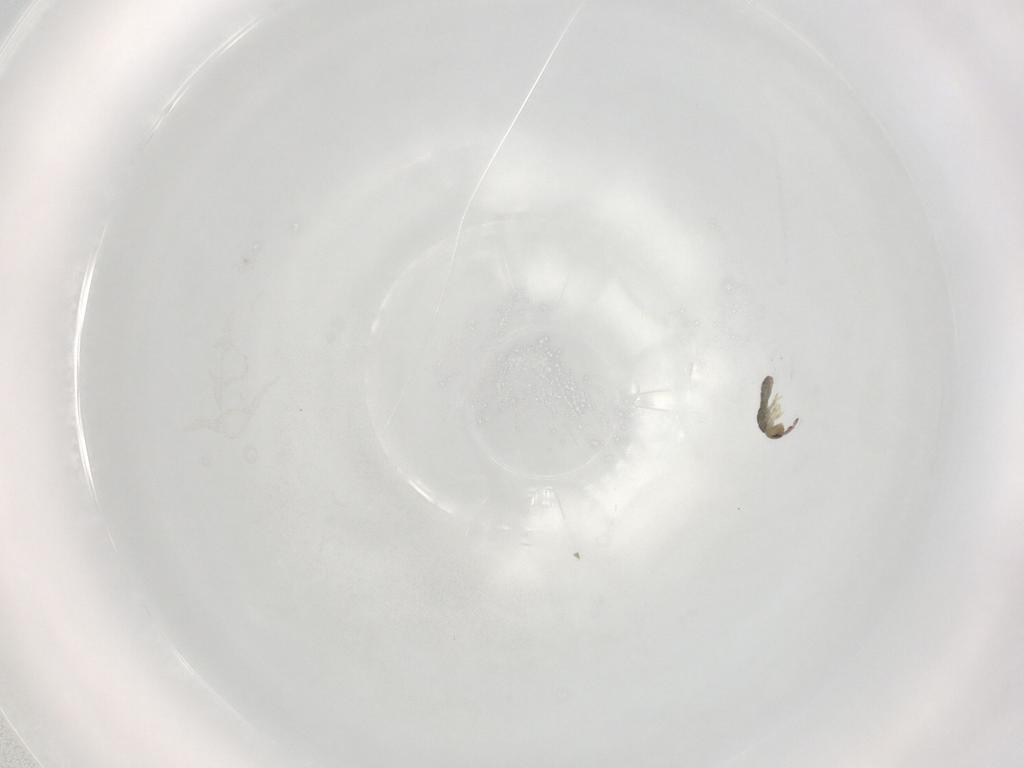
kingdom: Animalia
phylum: Arthropoda
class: Collembola
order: Entomobryomorpha
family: Isotomidae
